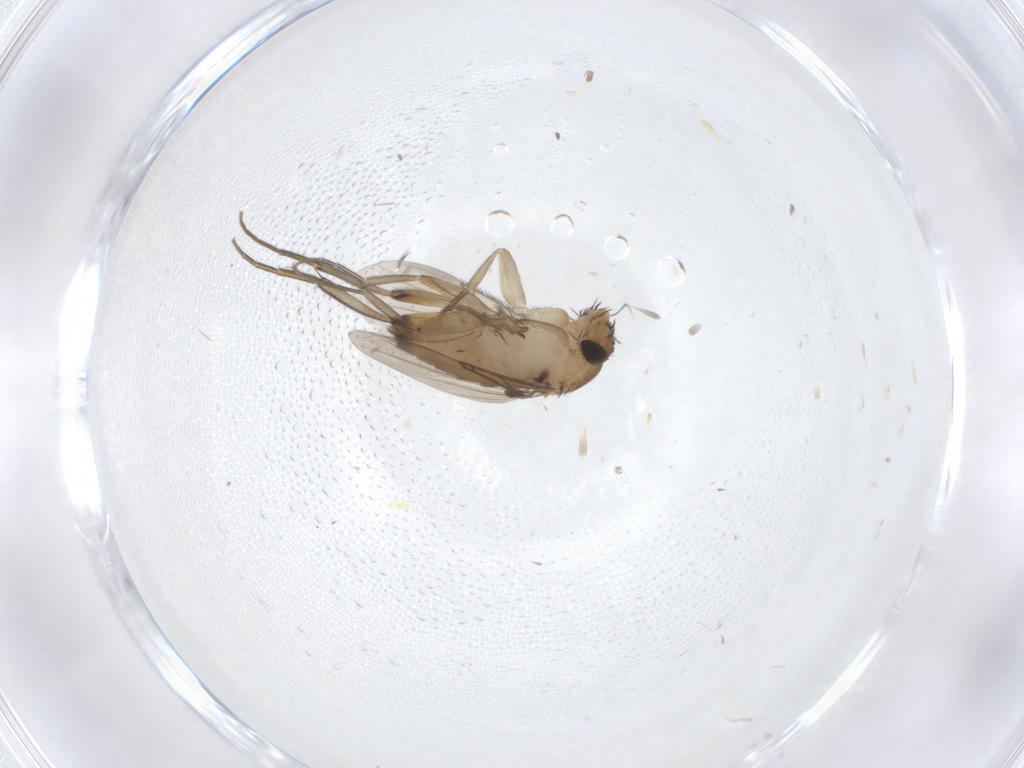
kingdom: Animalia
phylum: Arthropoda
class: Insecta
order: Diptera
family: Phoridae
